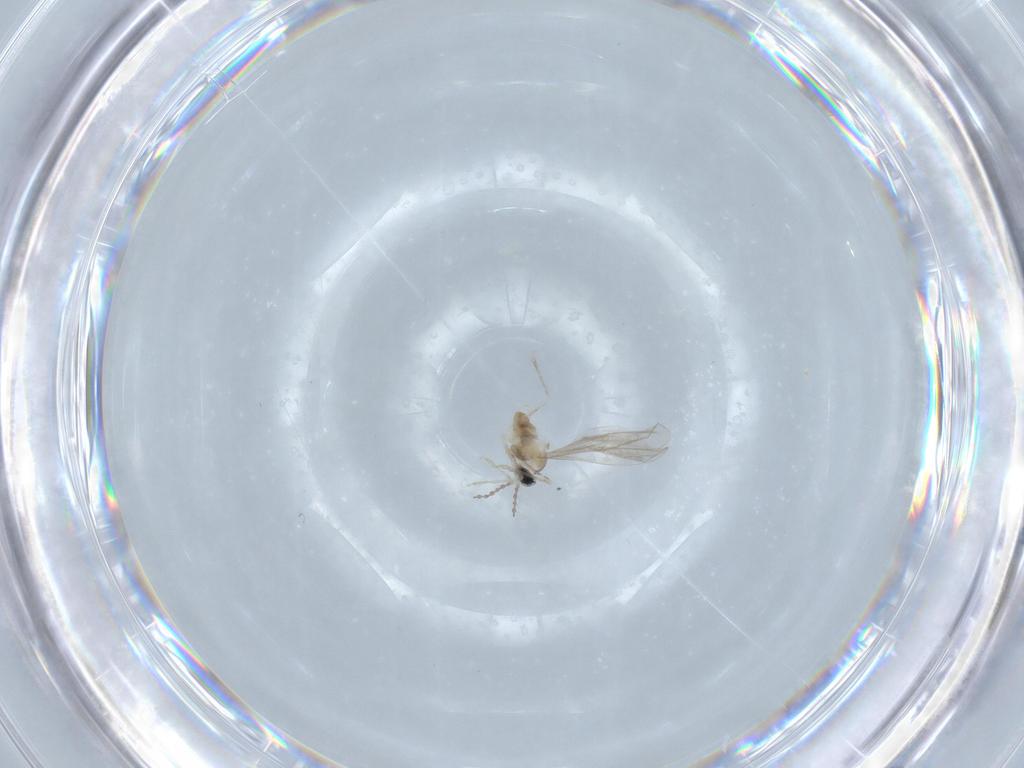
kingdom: Animalia
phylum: Arthropoda
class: Insecta
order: Diptera
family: Cecidomyiidae
